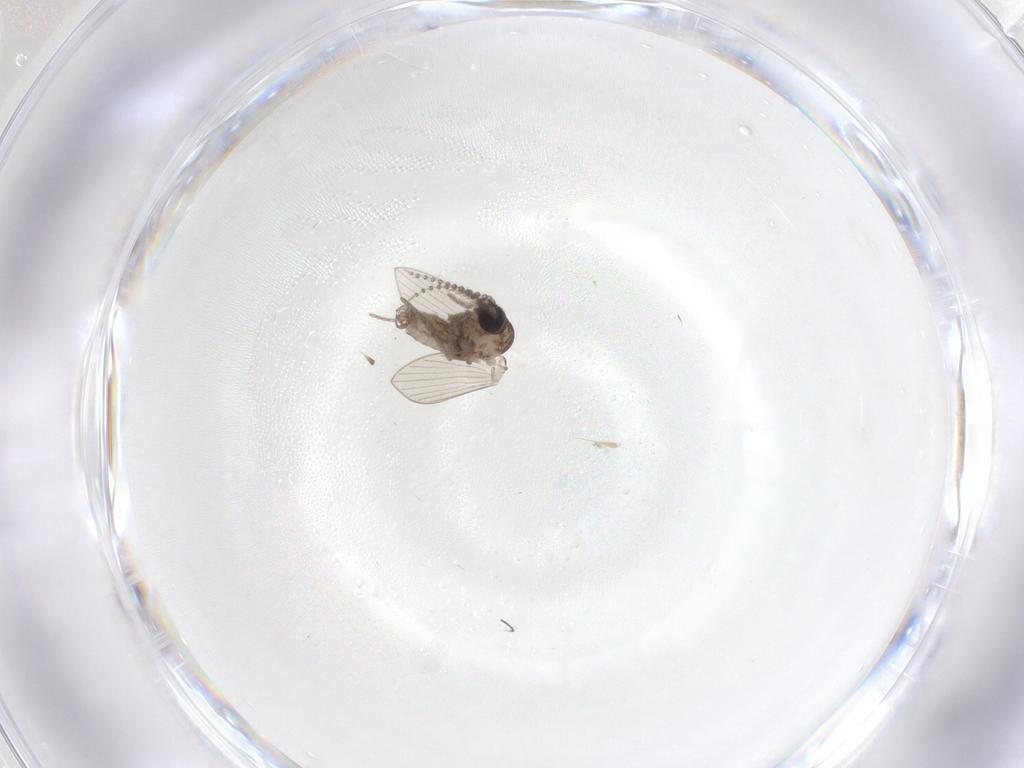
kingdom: Animalia
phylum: Arthropoda
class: Insecta
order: Diptera
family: Psychodidae
